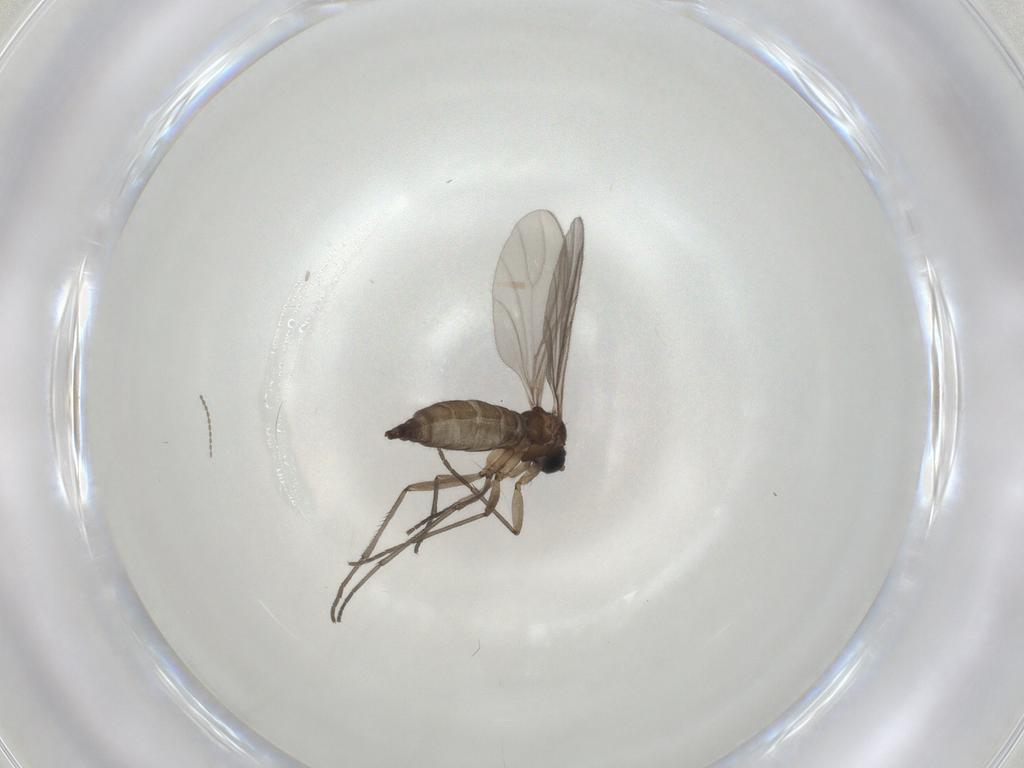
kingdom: Animalia
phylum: Arthropoda
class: Insecta
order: Diptera
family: Cecidomyiidae
